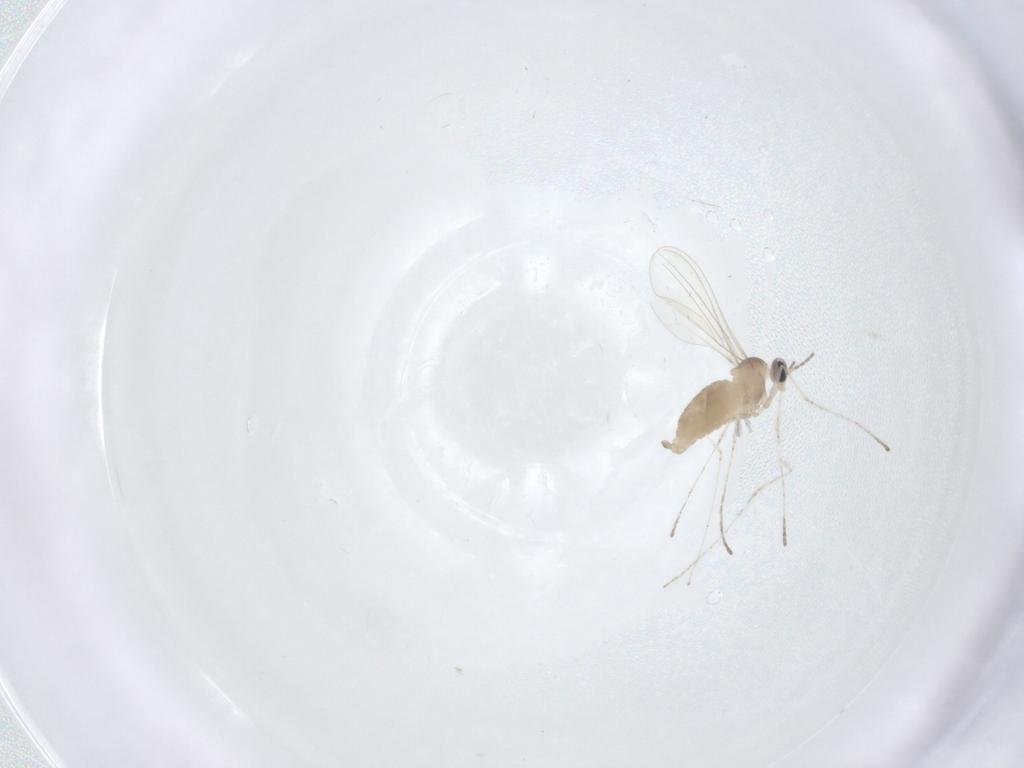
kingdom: Animalia
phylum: Arthropoda
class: Insecta
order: Diptera
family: Cecidomyiidae
